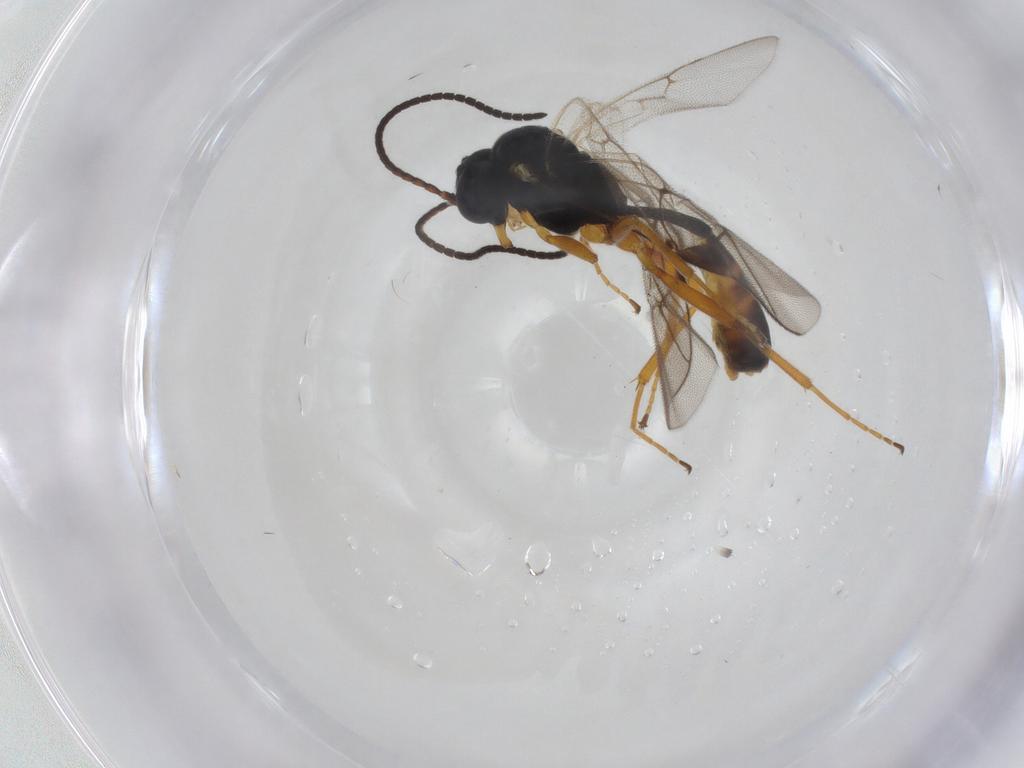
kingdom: Animalia
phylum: Arthropoda
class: Insecta
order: Hymenoptera
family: Ichneumonidae
